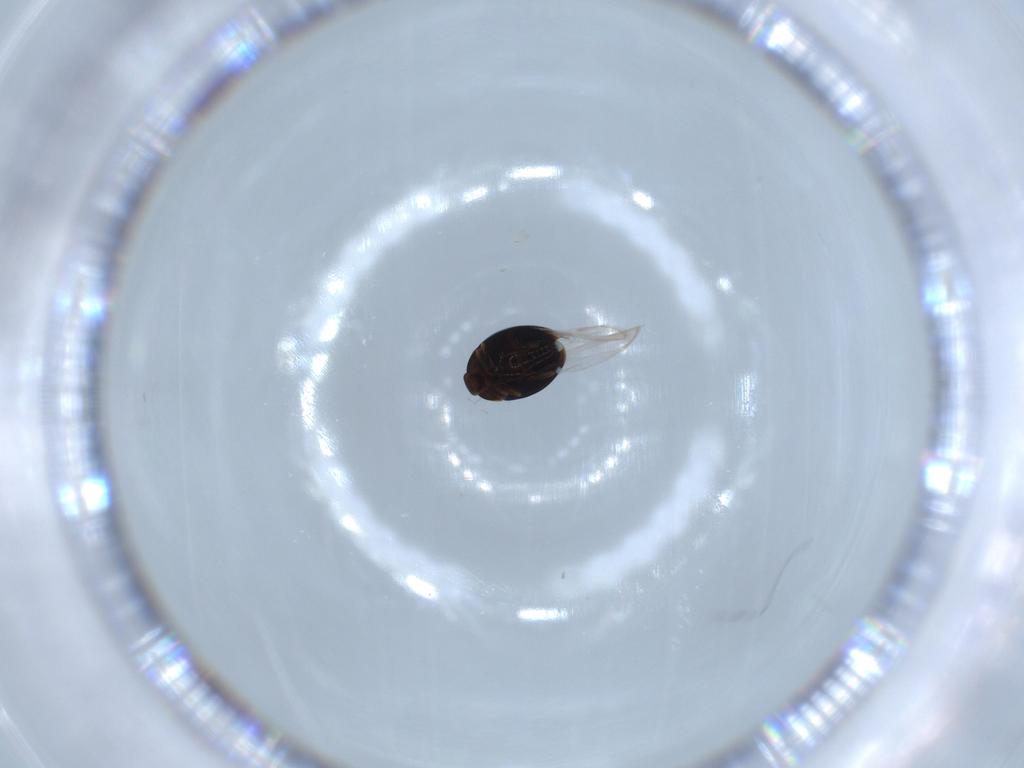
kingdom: Animalia
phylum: Arthropoda
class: Insecta
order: Coleoptera
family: Corylophidae
